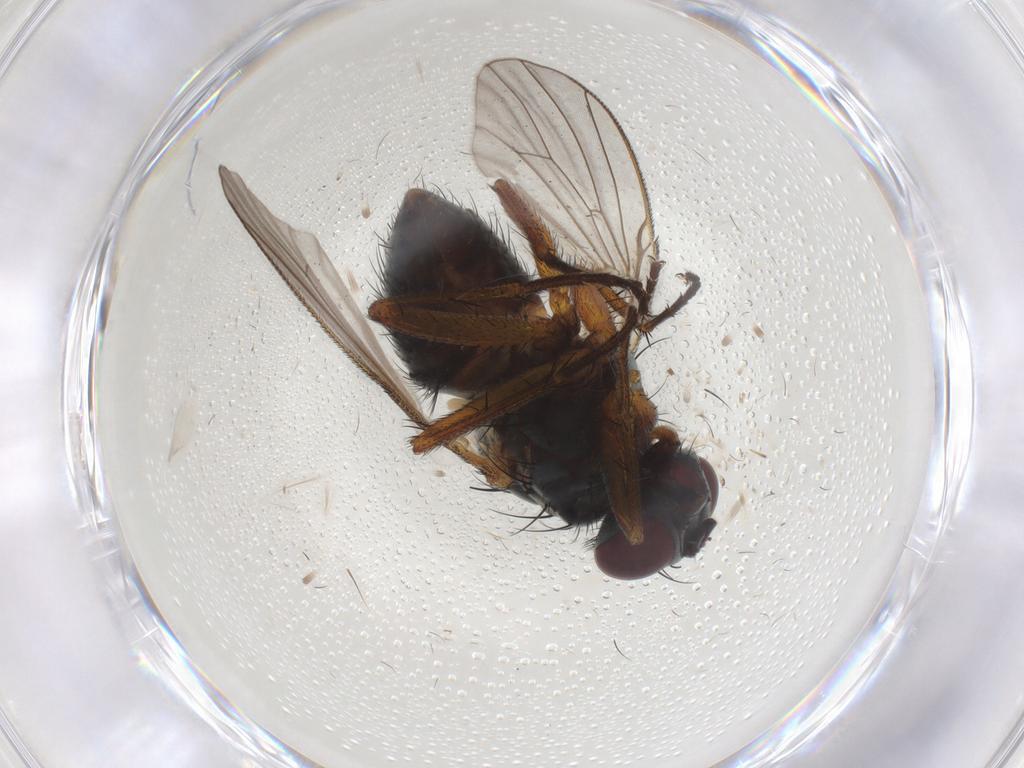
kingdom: Animalia
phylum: Arthropoda
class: Insecta
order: Diptera
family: Muscidae
